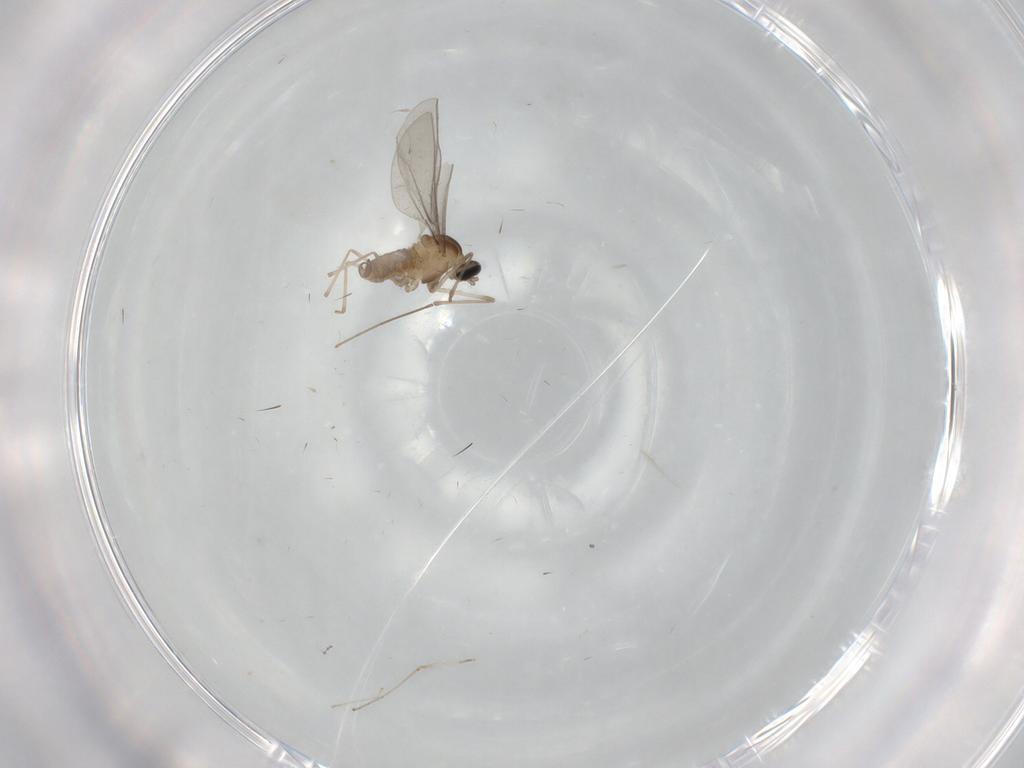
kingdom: Animalia
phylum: Arthropoda
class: Insecta
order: Diptera
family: Cecidomyiidae
